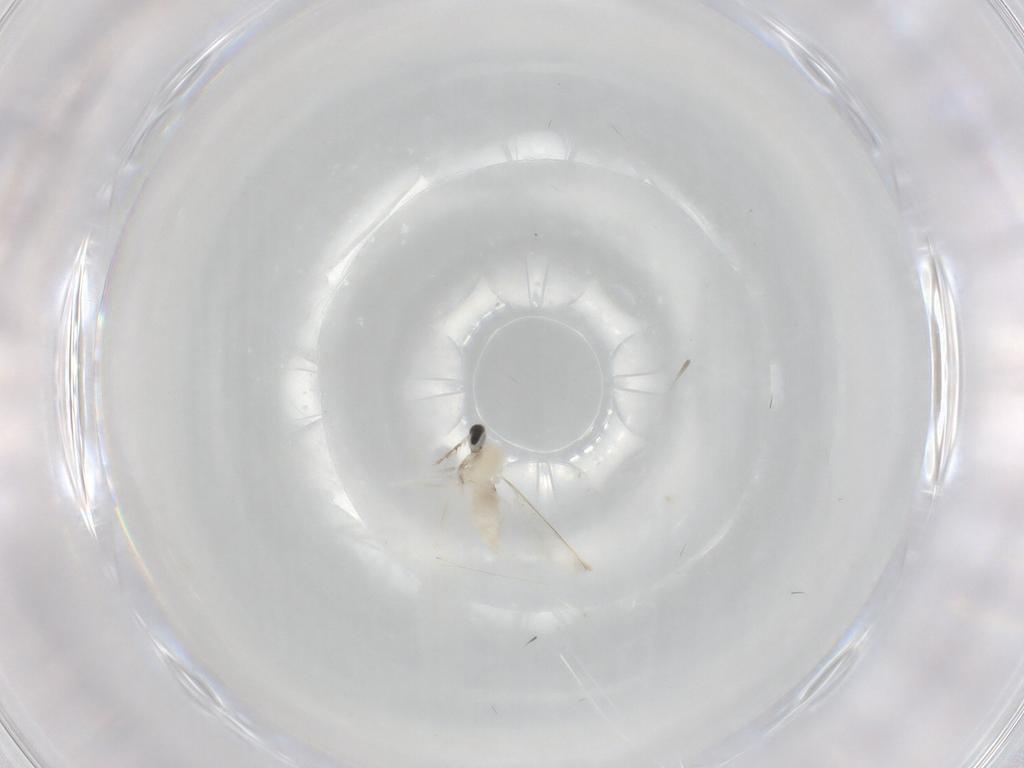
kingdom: Animalia
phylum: Arthropoda
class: Insecta
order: Diptera
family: Cecidomyiidae
